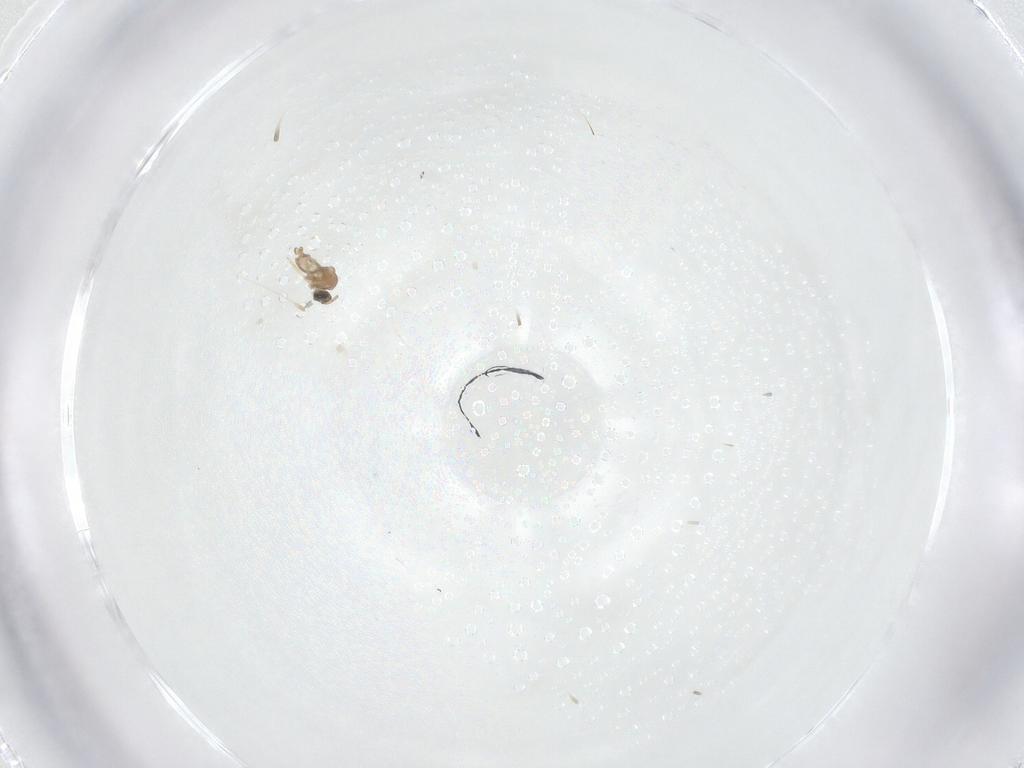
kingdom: Animalia
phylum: Arthropoda
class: Insecta
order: Diptera
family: Cecidomyiidae
